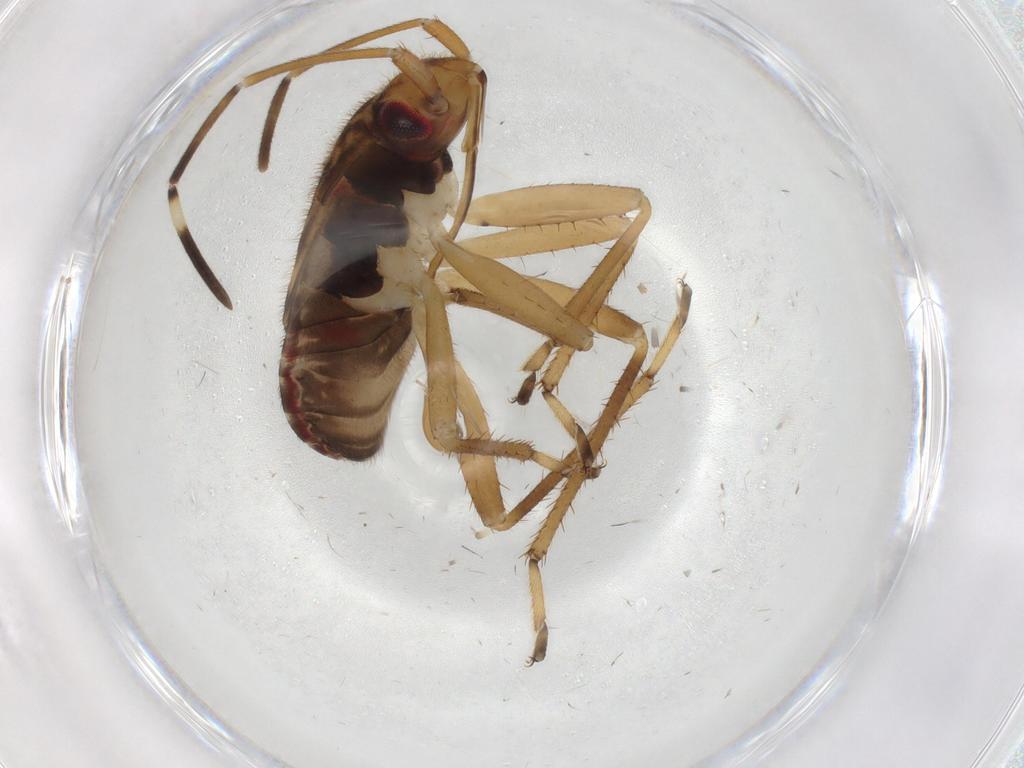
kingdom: Animalia
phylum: Arthropoda
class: Insecta
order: Hemiptera
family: Rhyparochromidae
